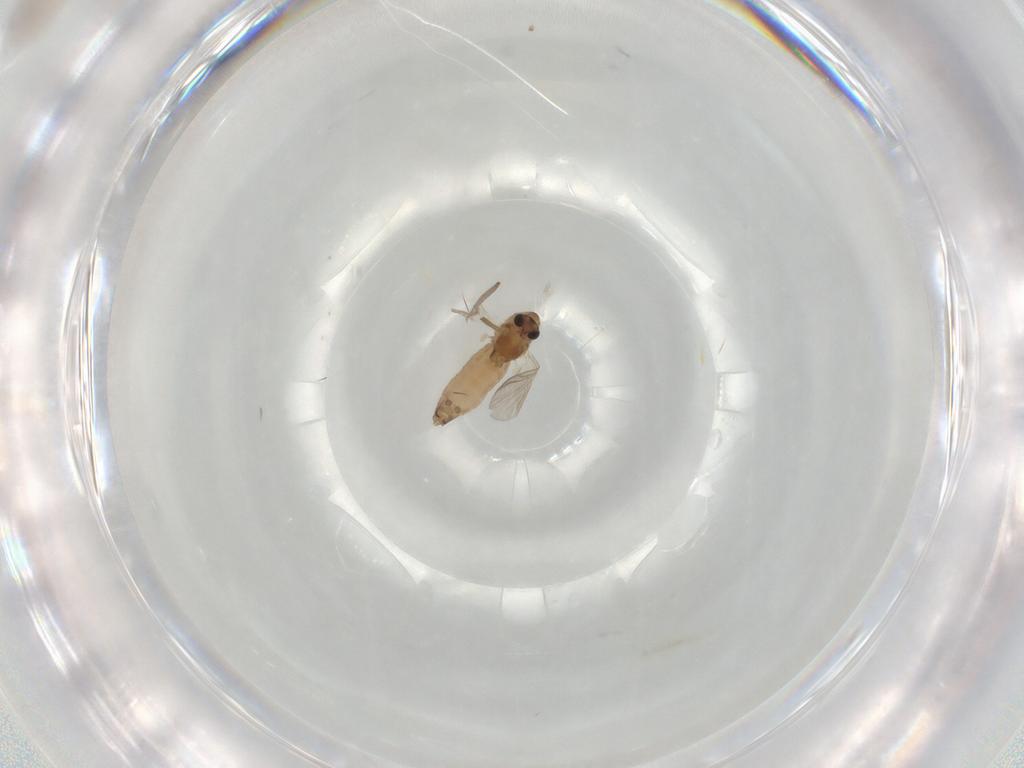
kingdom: Animalia
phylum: Arthropoda
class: Insecta
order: Diptera
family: Chironomidae
